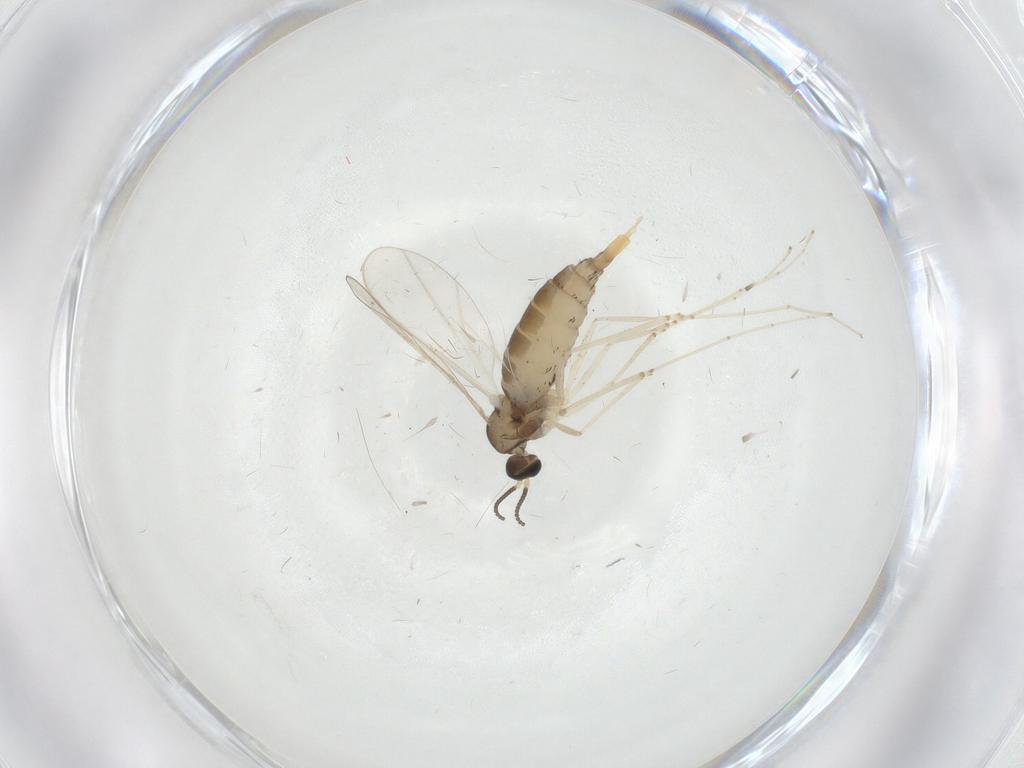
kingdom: Animalia
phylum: Arthropoda
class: Insecta
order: Diptera
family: Cecidomyiidae
